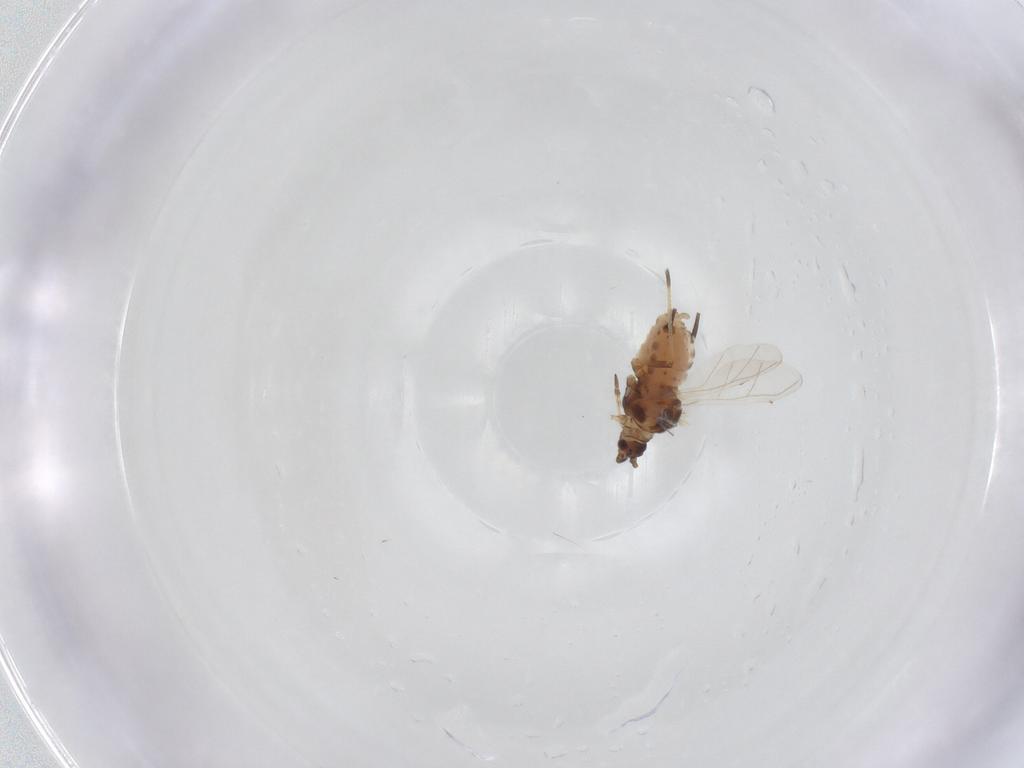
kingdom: Animalia
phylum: Arthropoda
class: Insecta
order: Hemiptera
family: Aphididae
